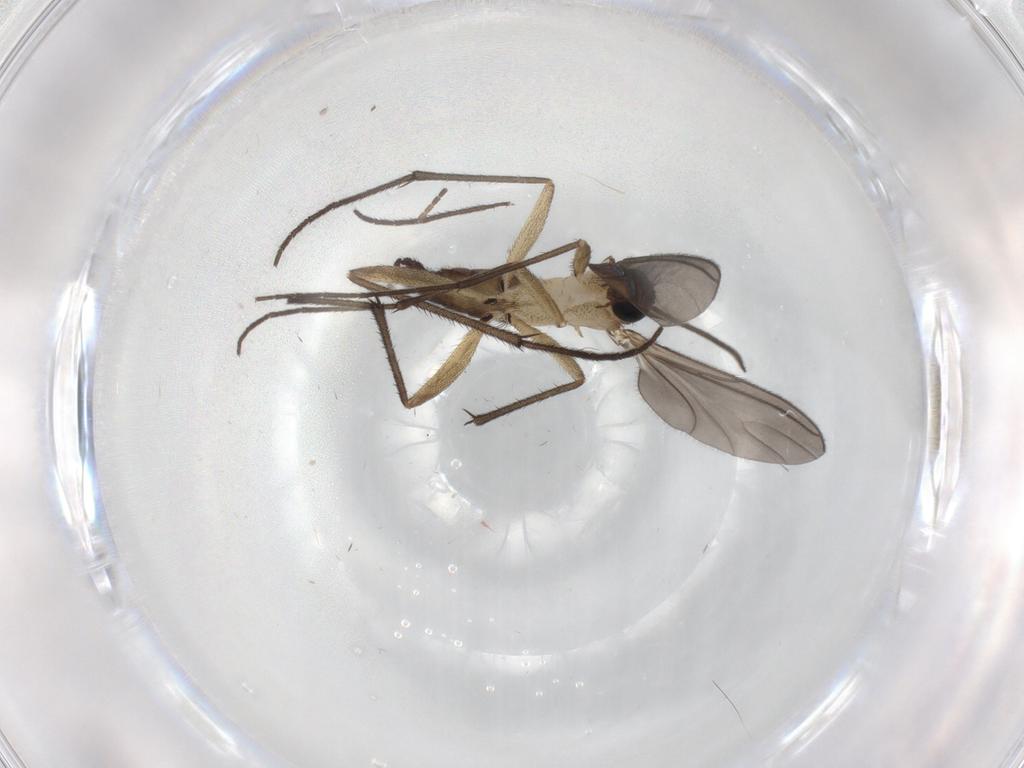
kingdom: Animalia
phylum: Arthropoda
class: Insecta
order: Diptera
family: Sciaridae
